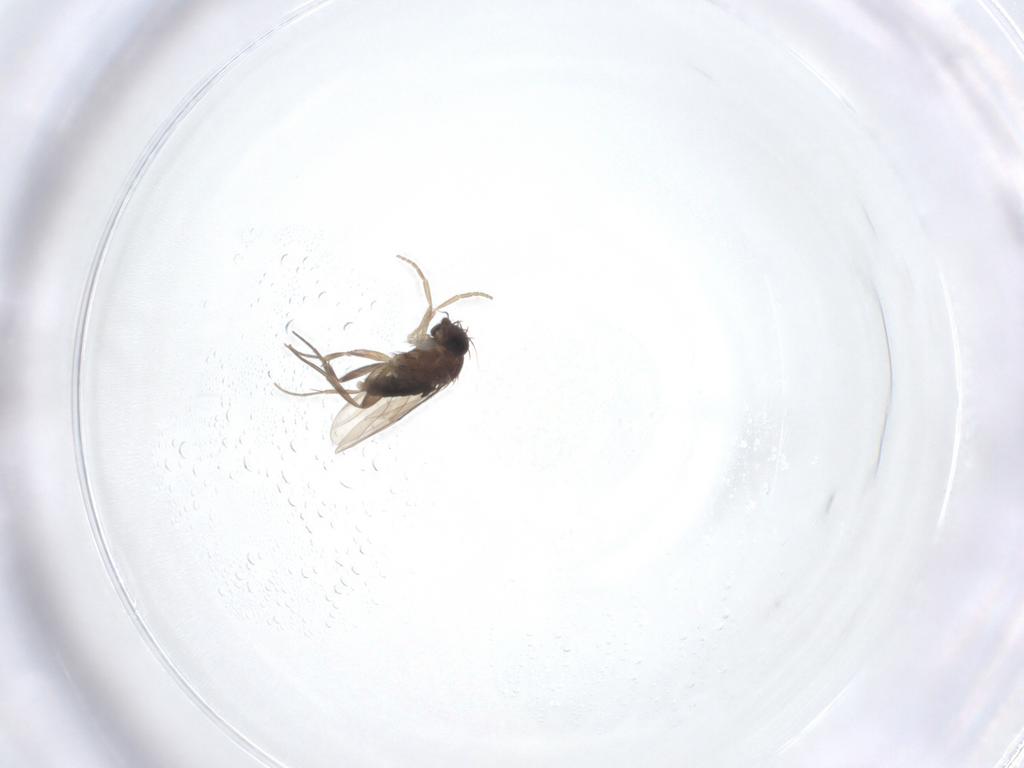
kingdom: Animalia
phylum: Arthropoda
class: Insecta
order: Diptera
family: Phoridae
